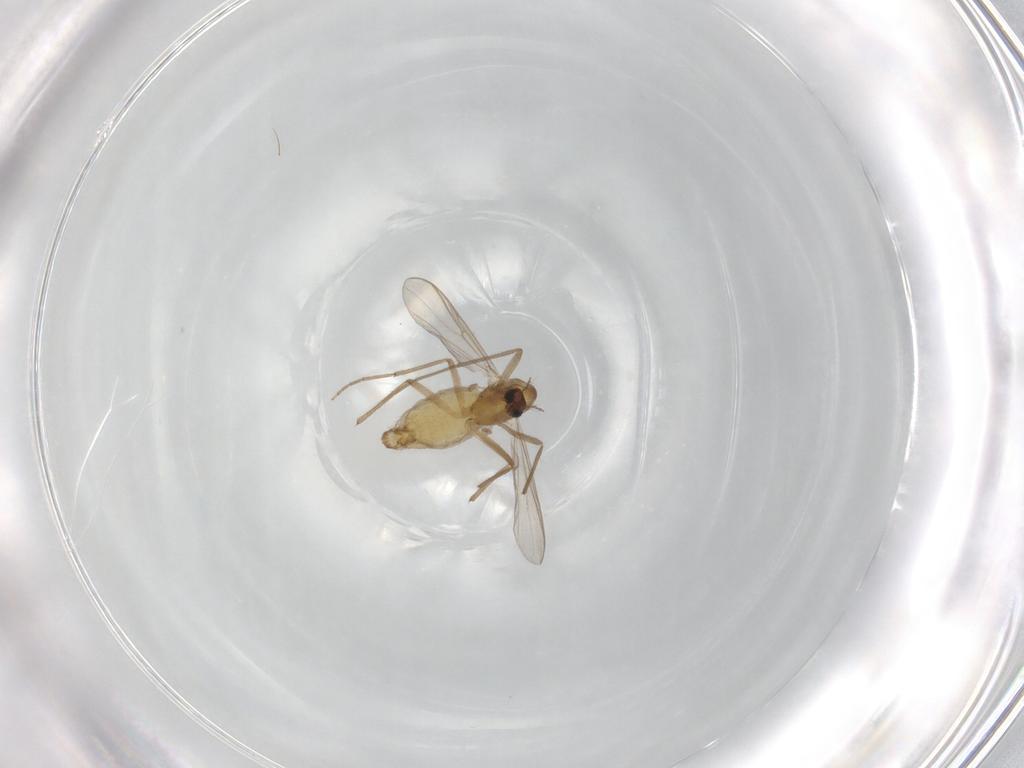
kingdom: Animalia
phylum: Arthropoda
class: Insecta
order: Diptera
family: Chironomidae
